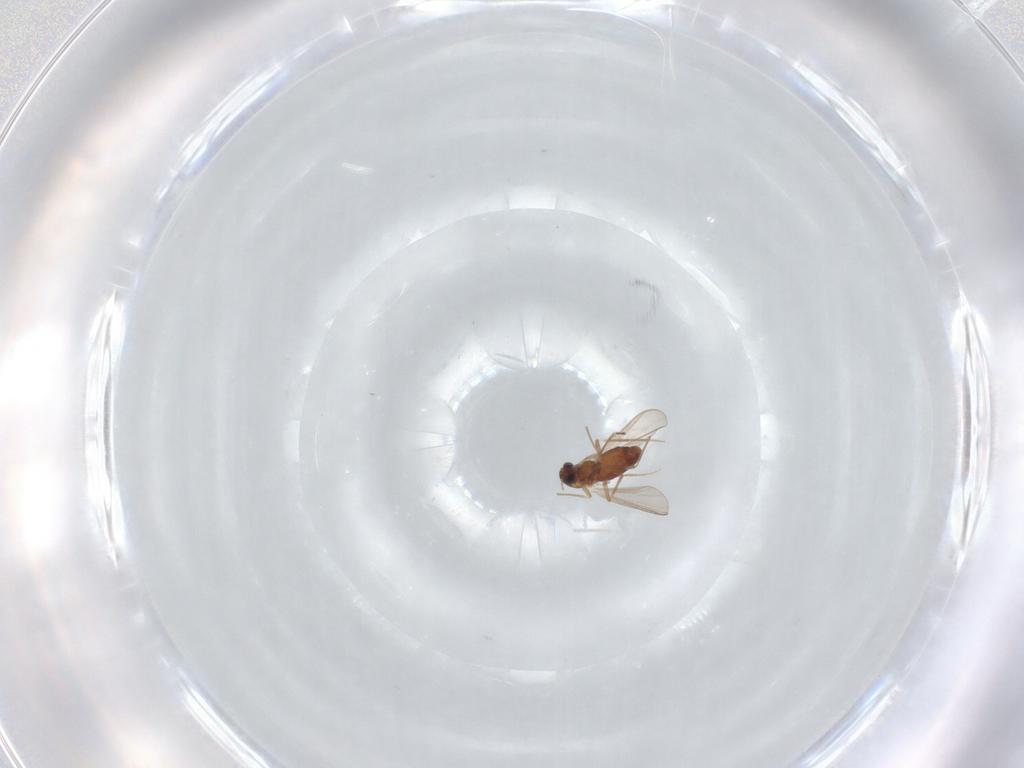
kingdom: Animalia
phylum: Arthropoda
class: Insecta
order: Diptera
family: Chironomidae
